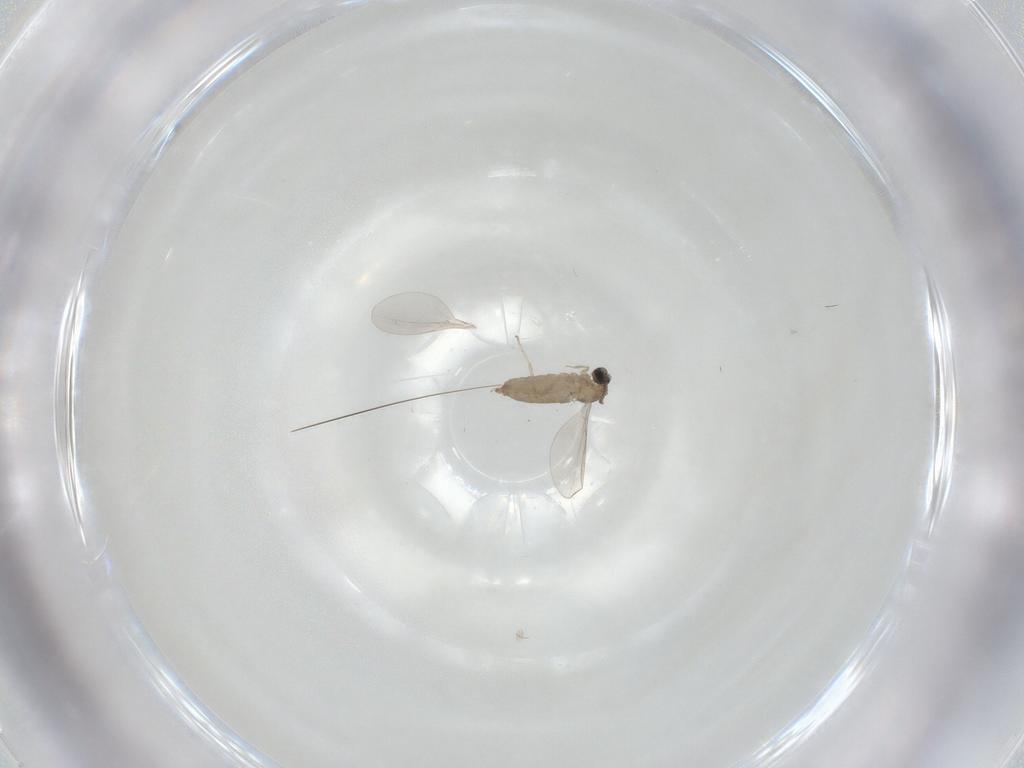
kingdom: Animalia
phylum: Arthropoda
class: Insecta
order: Diptera
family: Cecidomyiidae
